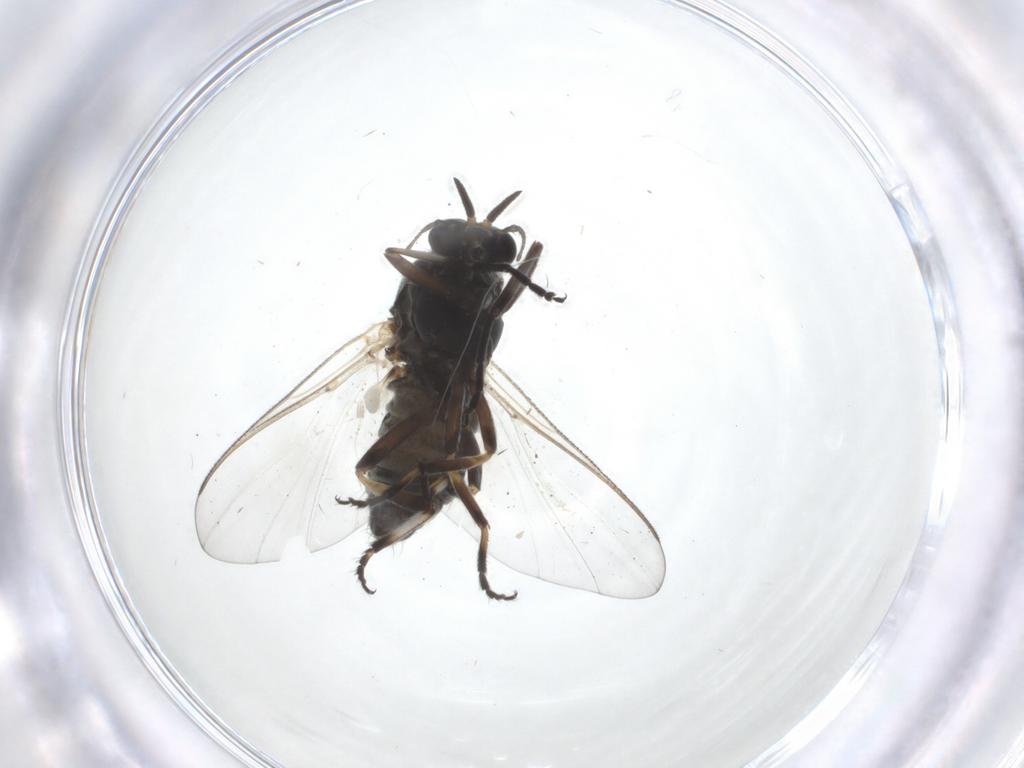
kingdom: Animalia
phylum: Arthropoda
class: Insecta
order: Diptera
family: Simuliidae
